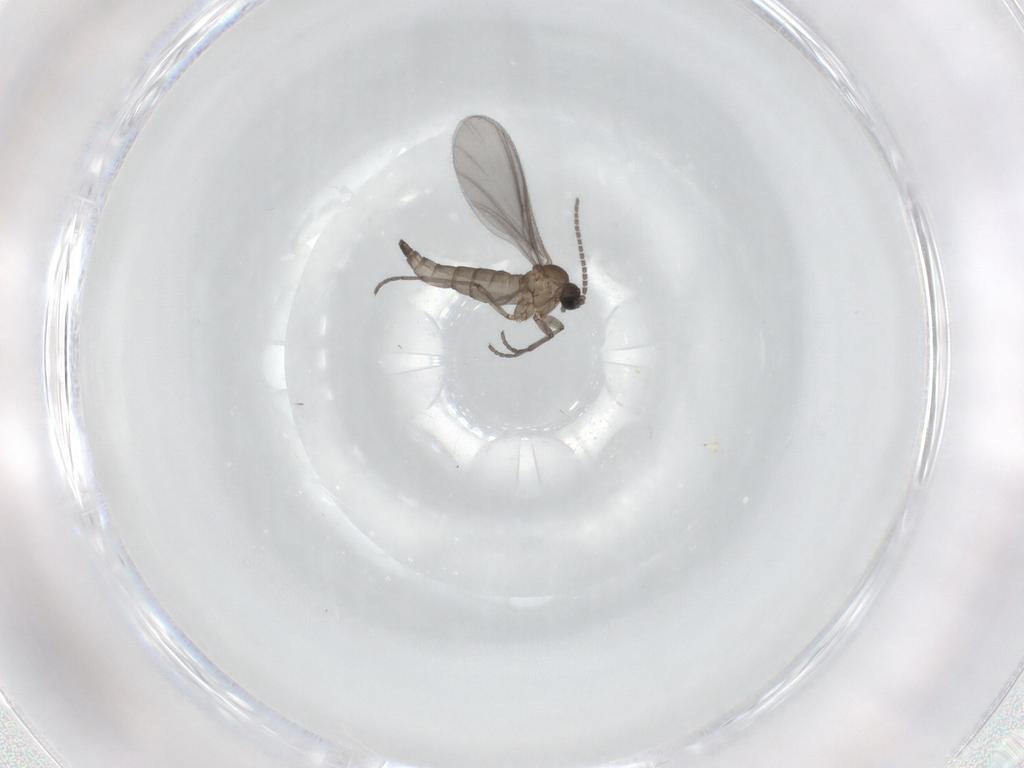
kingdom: Animalia
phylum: Arthropoda
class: Insecta
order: Diptera
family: Sciaridae
